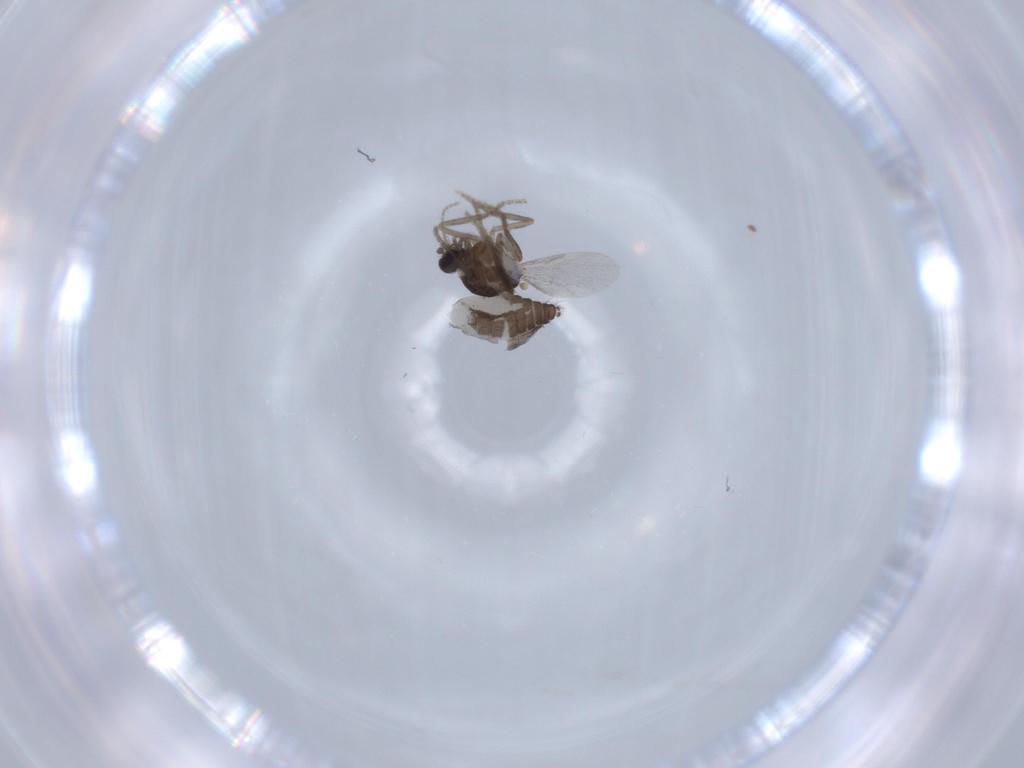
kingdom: Animalia
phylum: Arthropoda
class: Insecta
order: Diptera
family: Ceratopogonidae
